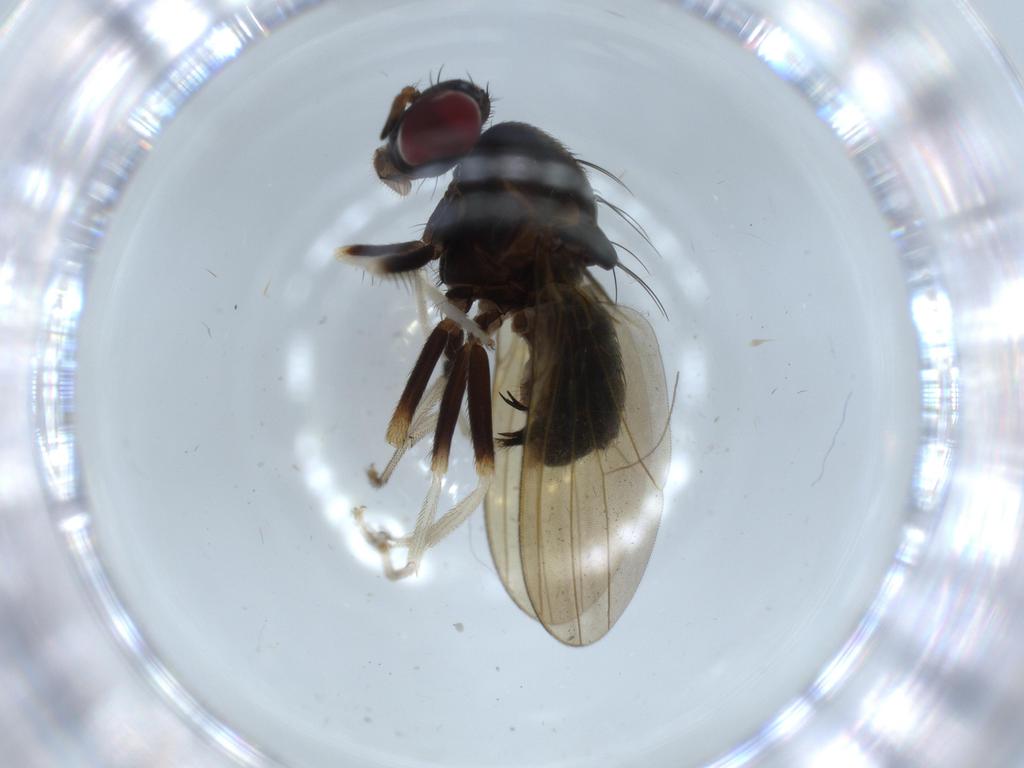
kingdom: Animalia
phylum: Arthropoda
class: Insecta
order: Diptera
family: Lauxaniidae
